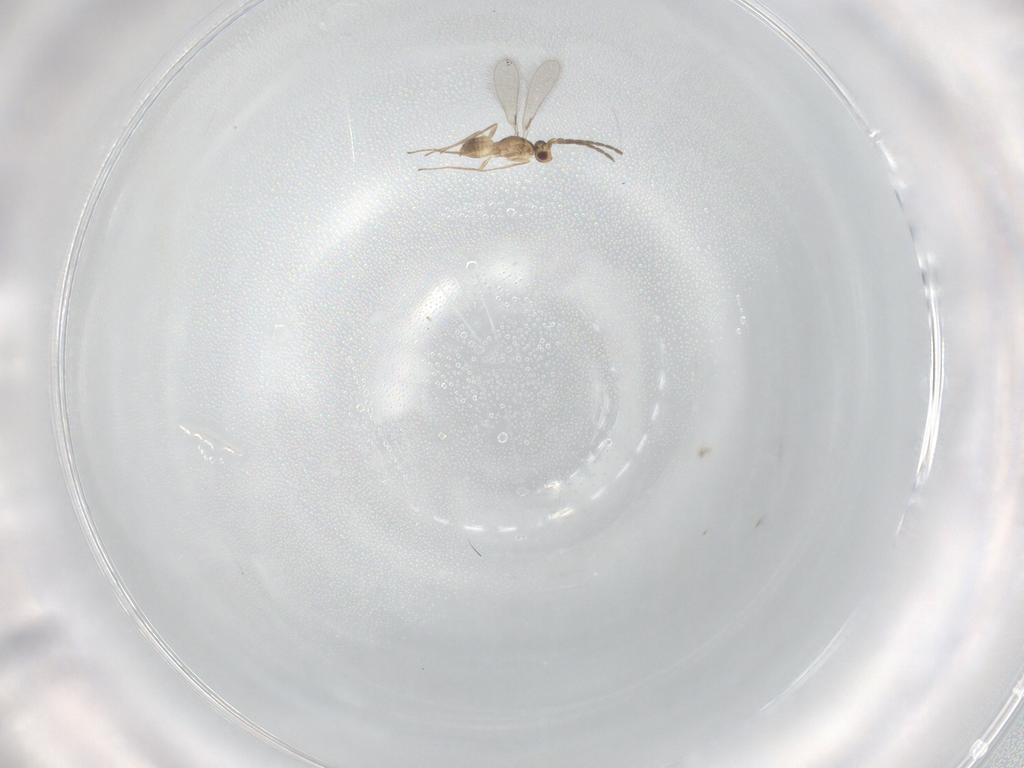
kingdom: Animalia
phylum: Arthropoda
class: Insecta
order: Hymenoptera
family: Mymaridae
